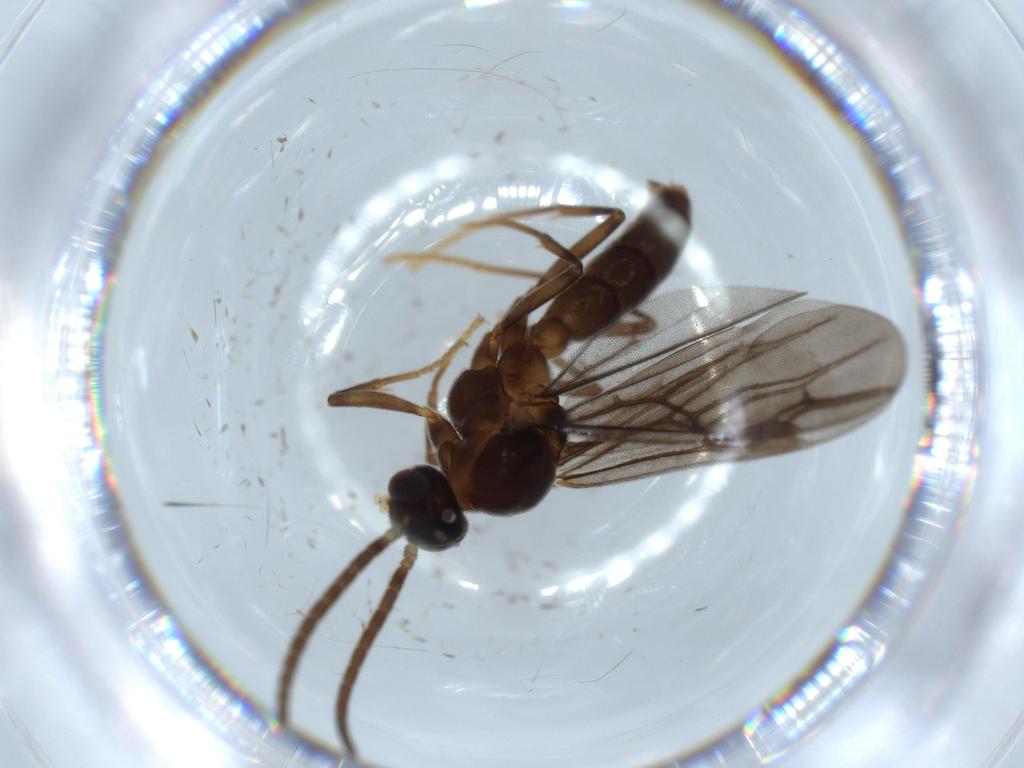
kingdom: Animalia
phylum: Arthropoda
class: Insecta
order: Hymenoptera
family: Formicidae
